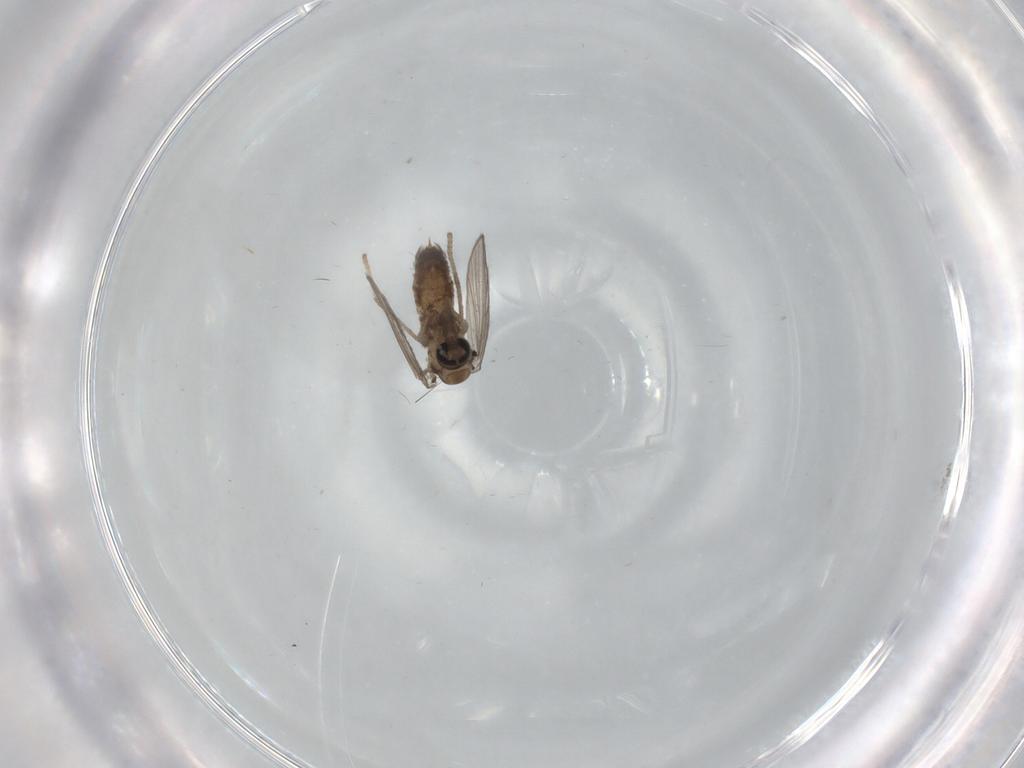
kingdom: Animalia
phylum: Arthropoda
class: Insecta
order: Diptera
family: Psychodidae
